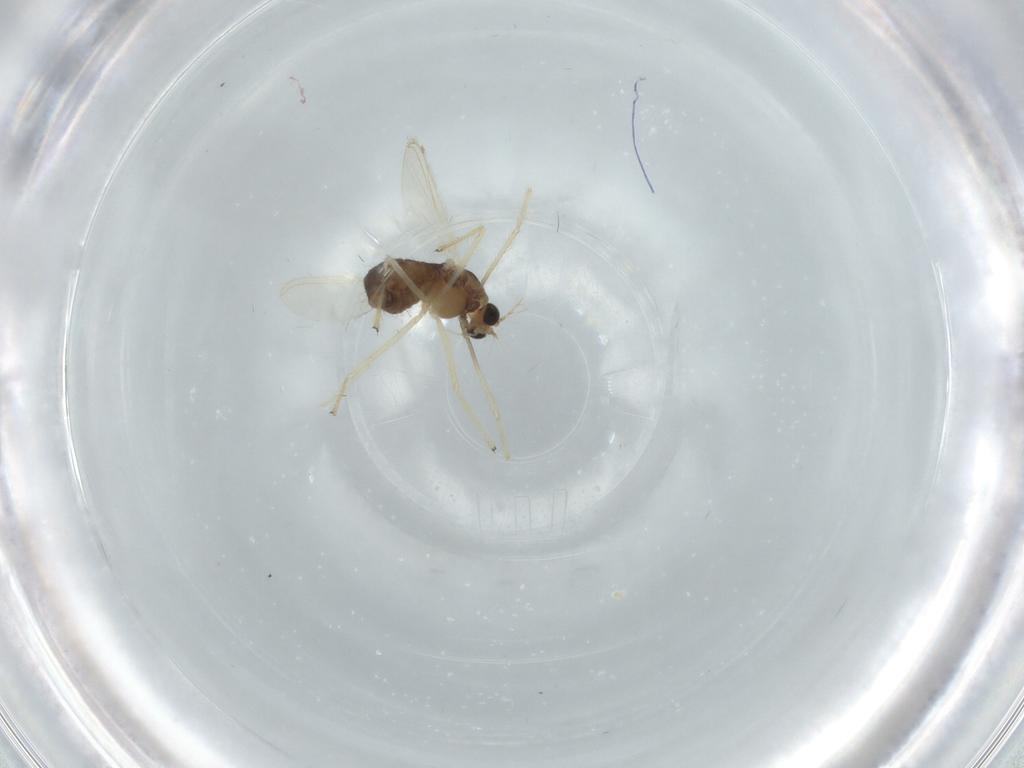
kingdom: Animalia
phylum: Arthropoda
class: Insecta
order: Diptera
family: Chironomidae
